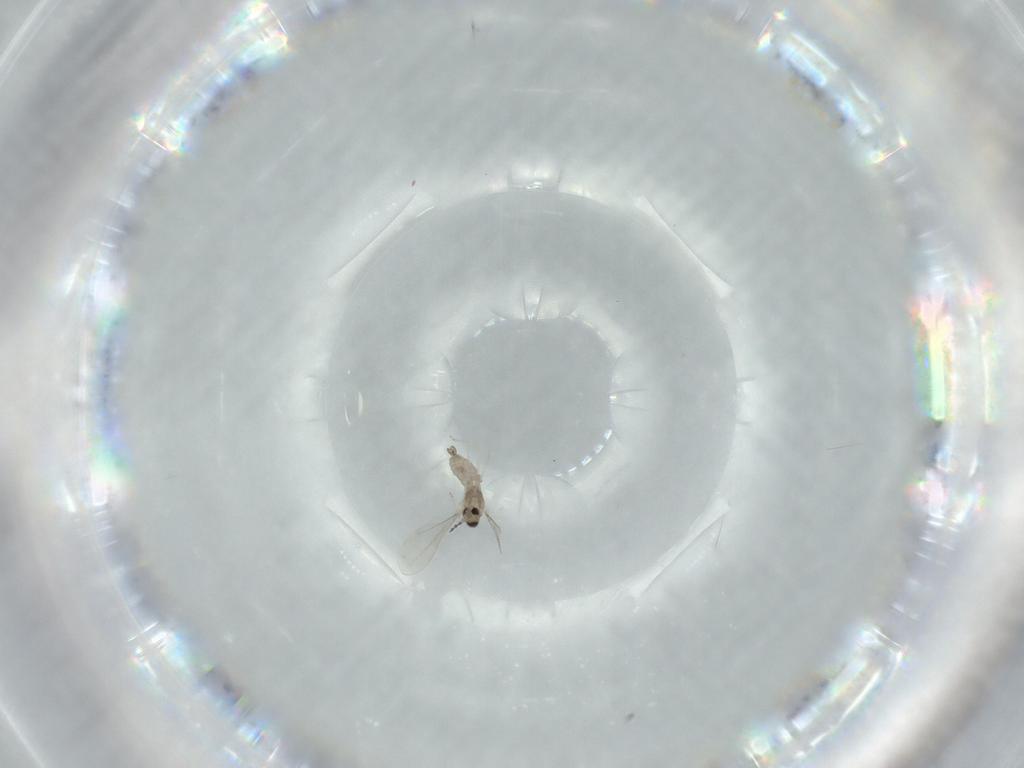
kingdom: Animalia
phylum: Arthropoda
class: Insecta
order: Diptera
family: Cecidomyiidae
